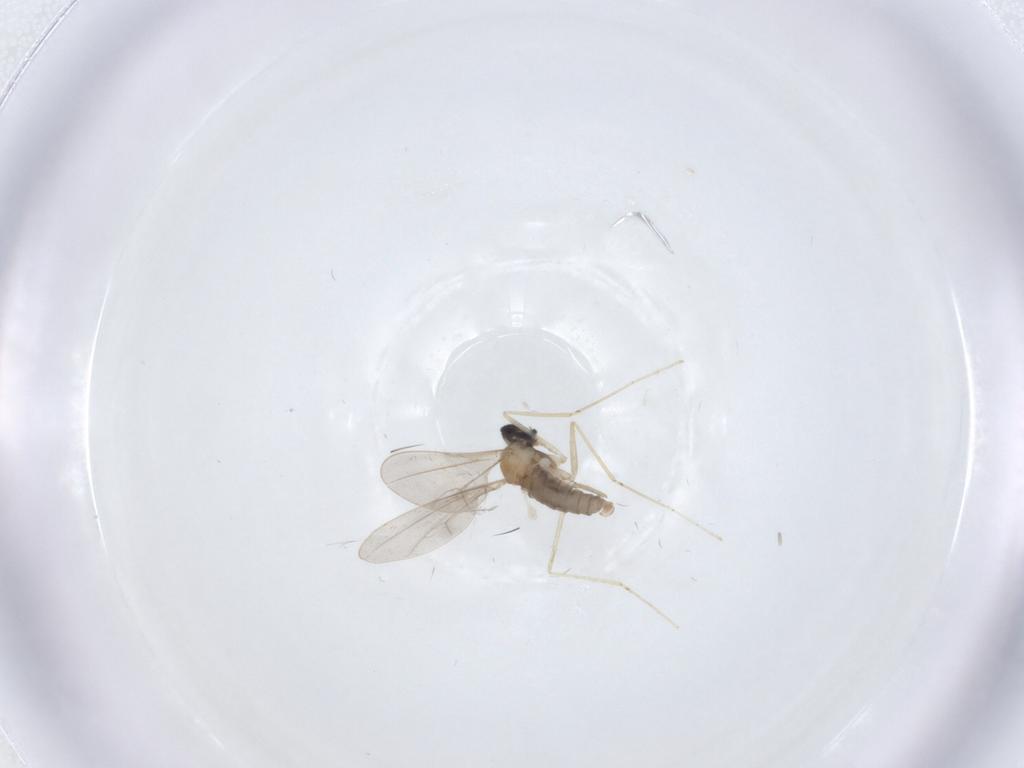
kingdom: Animalia
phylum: Arthropoda
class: Insecta
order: Diptera
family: Cecidomyiidae
